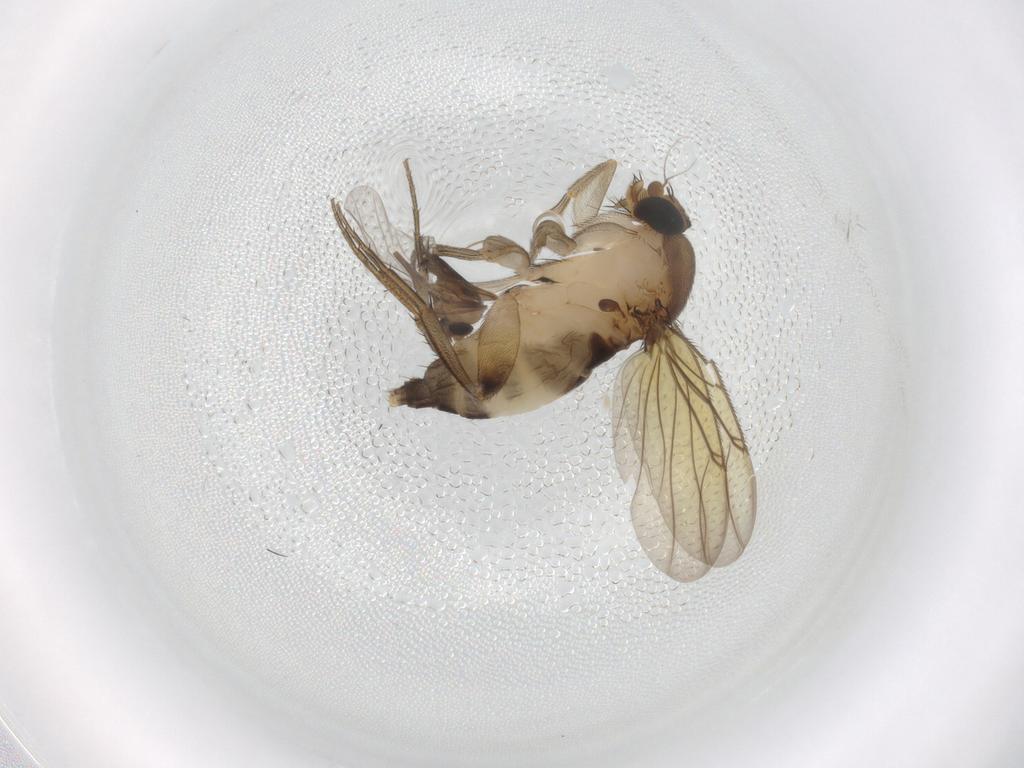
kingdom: Animalia
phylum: Arthropoda
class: Insecta
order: Diptera
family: Phoridae
